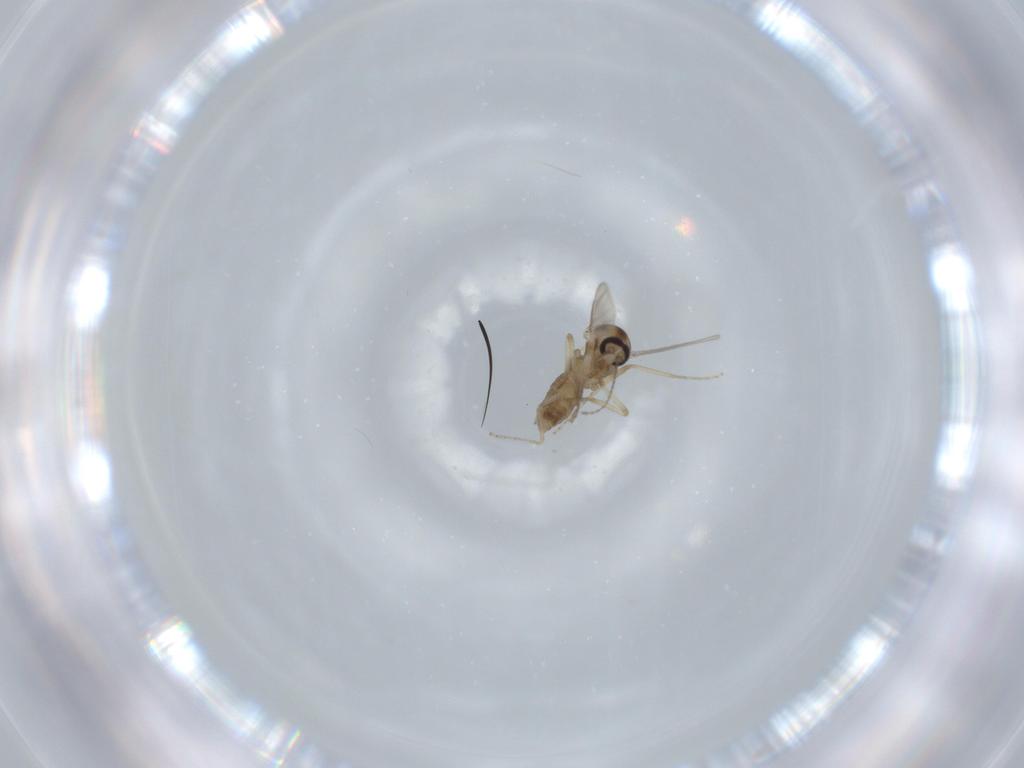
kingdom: Animalia
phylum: Arthropoda
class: Insecta
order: Diptera
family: Ceratopogonidae
